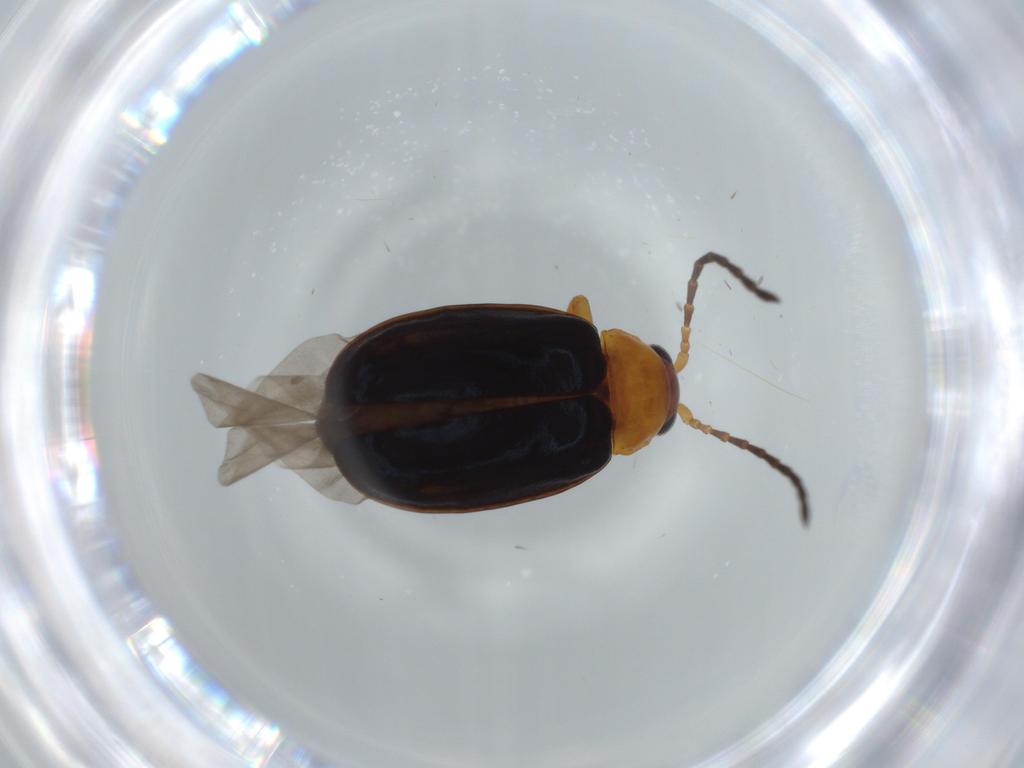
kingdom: Animalia
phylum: Arthropoda
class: Insecta
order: Coleoptera
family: Chrysomelidae
